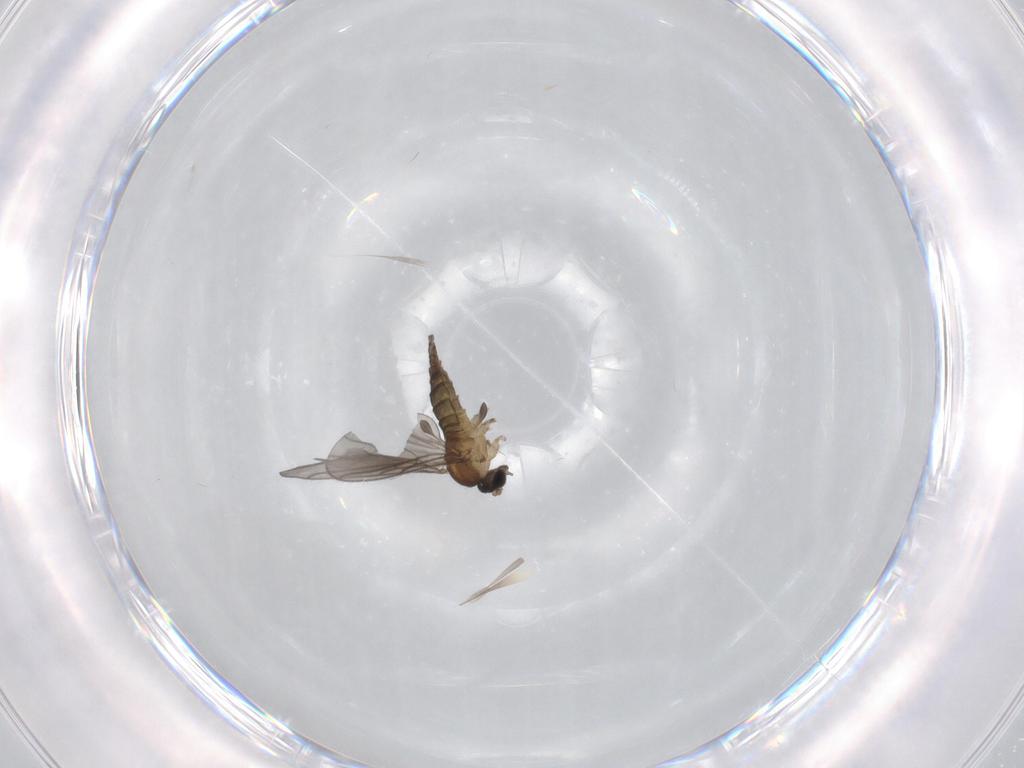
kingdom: Animalia
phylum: Arthropoda
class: Insecta
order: Diptera
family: Sciaridae
